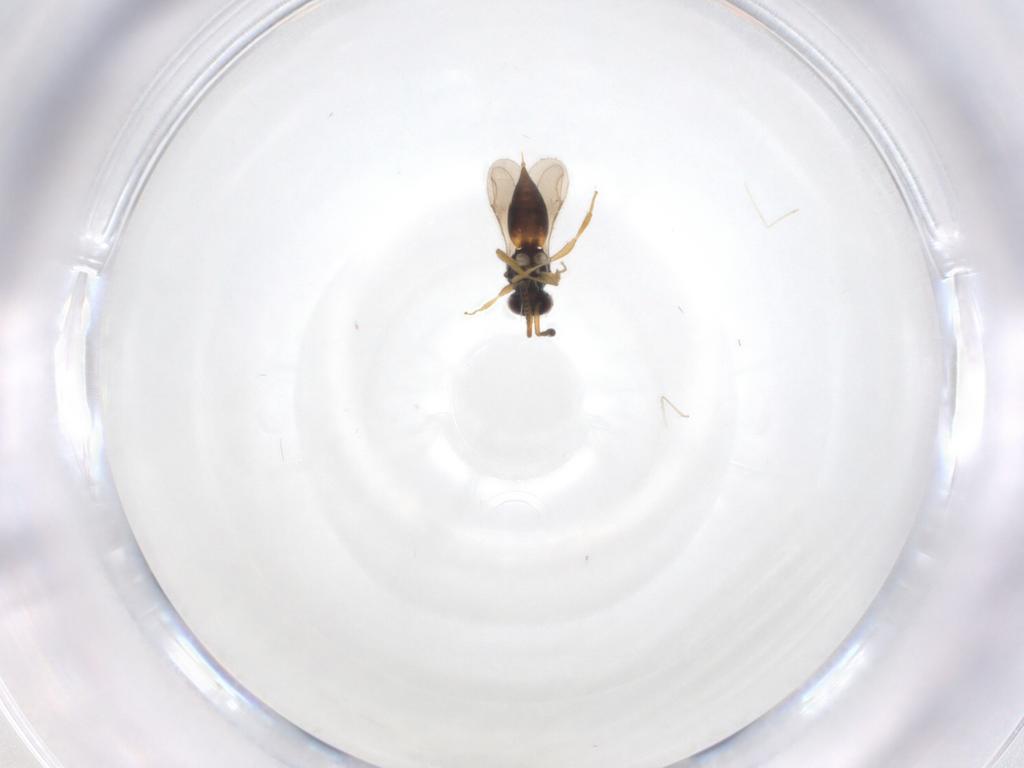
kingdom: Animalia
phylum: Arthropoda
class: Insecta
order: Hymenoptera
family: Ceraphronidae
